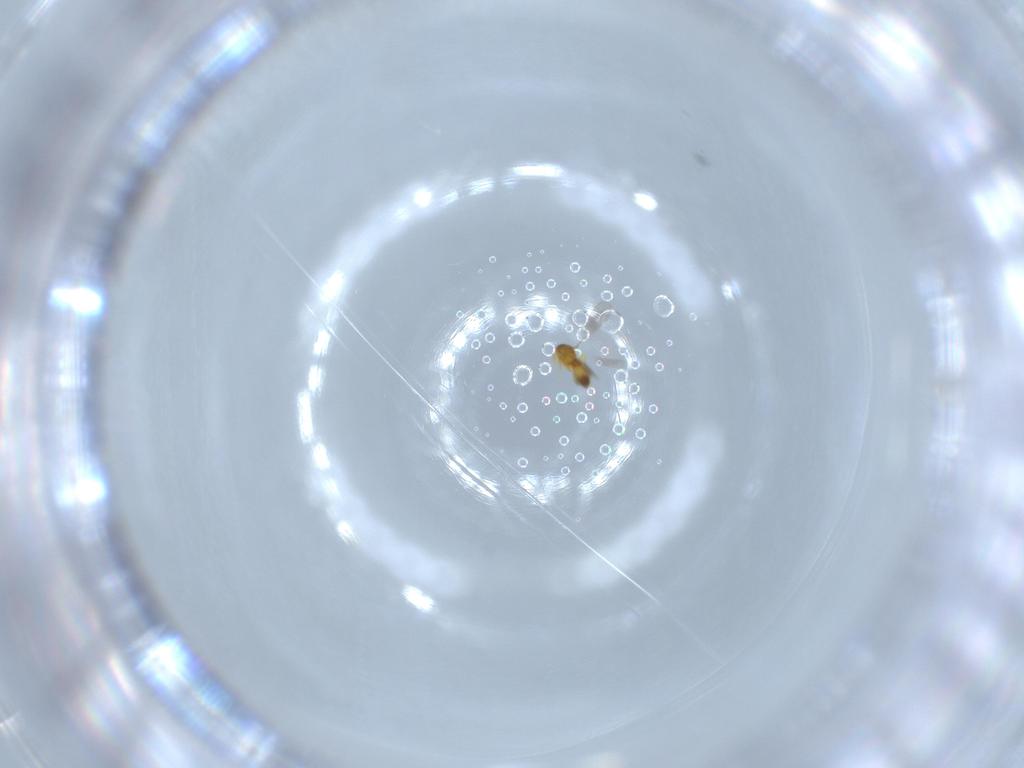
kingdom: Animalia
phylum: Arthropoda
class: Insecta
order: Hymenoptera
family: Platygastridae
